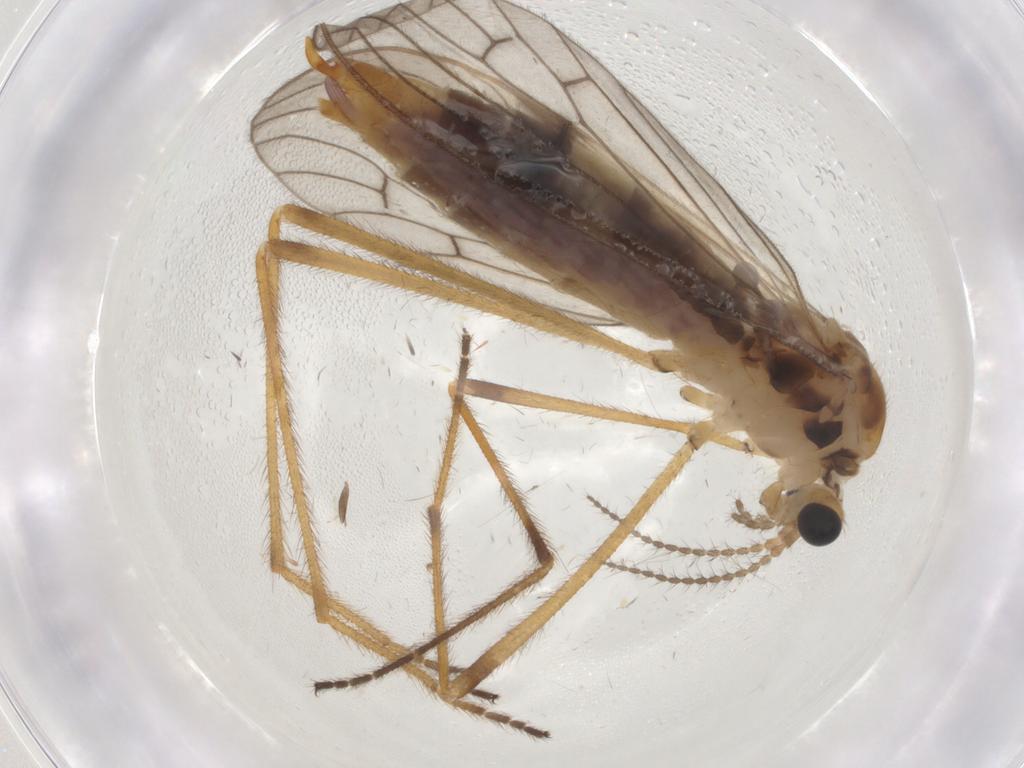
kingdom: Animalia
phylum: Arthropoda
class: Insecta
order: Diptera
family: Limoniidae
